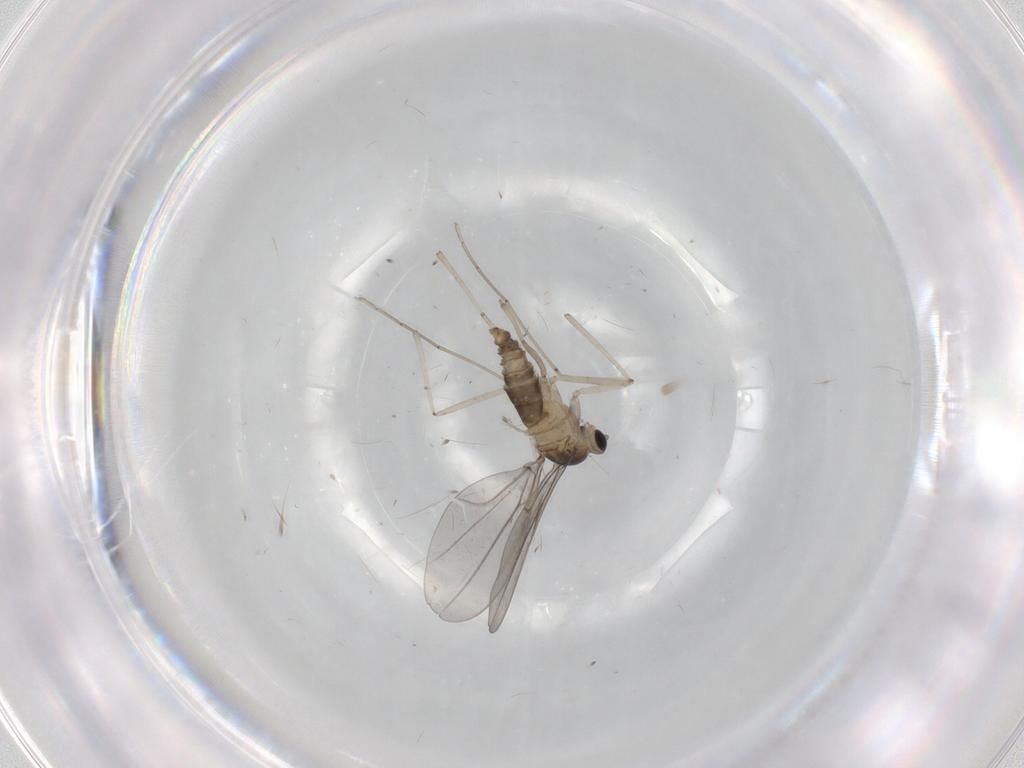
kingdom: Animalia
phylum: Arthropoda
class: Insecta
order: Diptera
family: Cecidomyiidae
